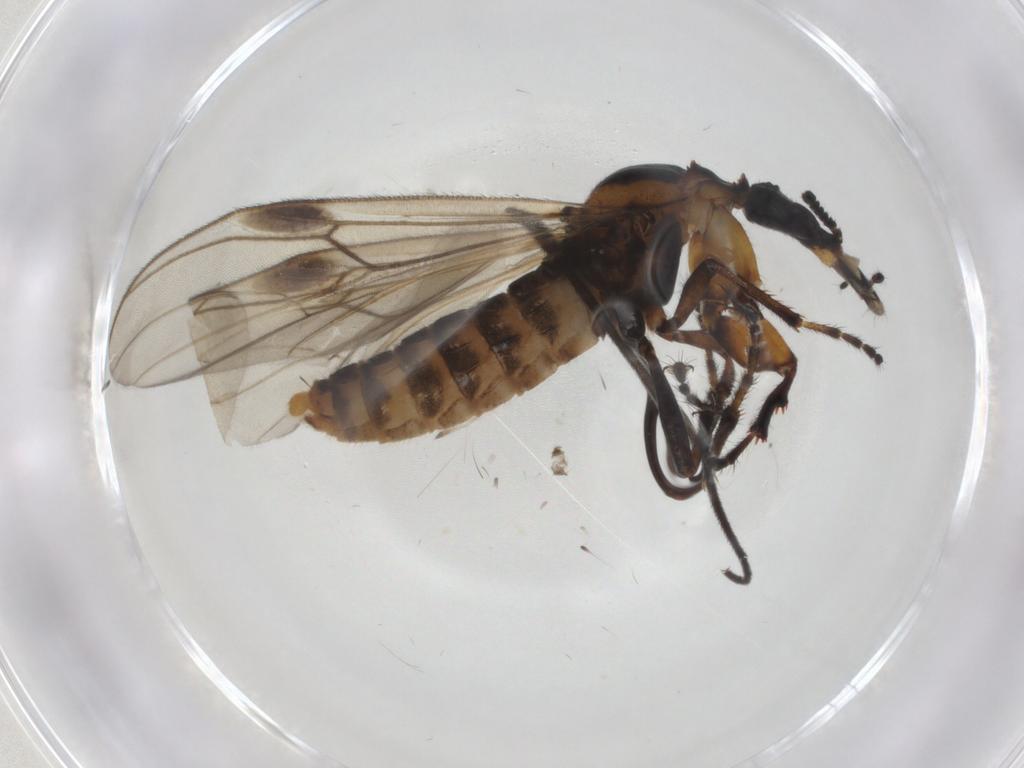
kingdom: Animalia
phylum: Arthropoda
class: Insecta
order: Diptera
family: Bibionidae
